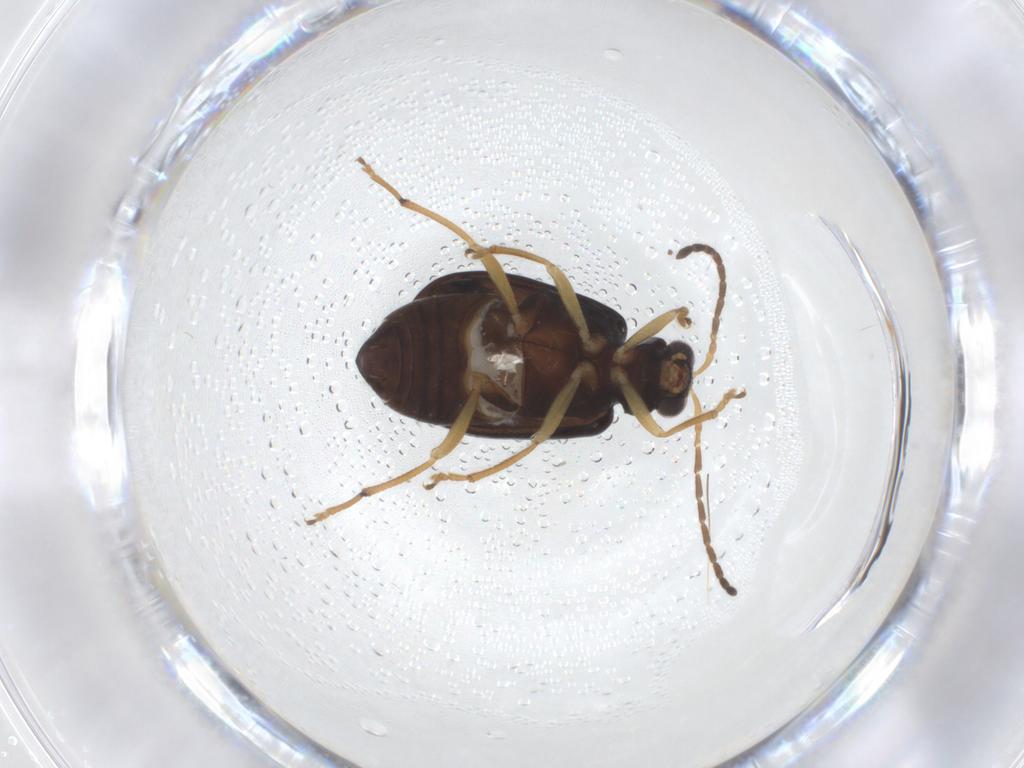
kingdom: Animalia
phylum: Arthropoda
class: Insecta
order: Coleoptera
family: Chrysomelidae
